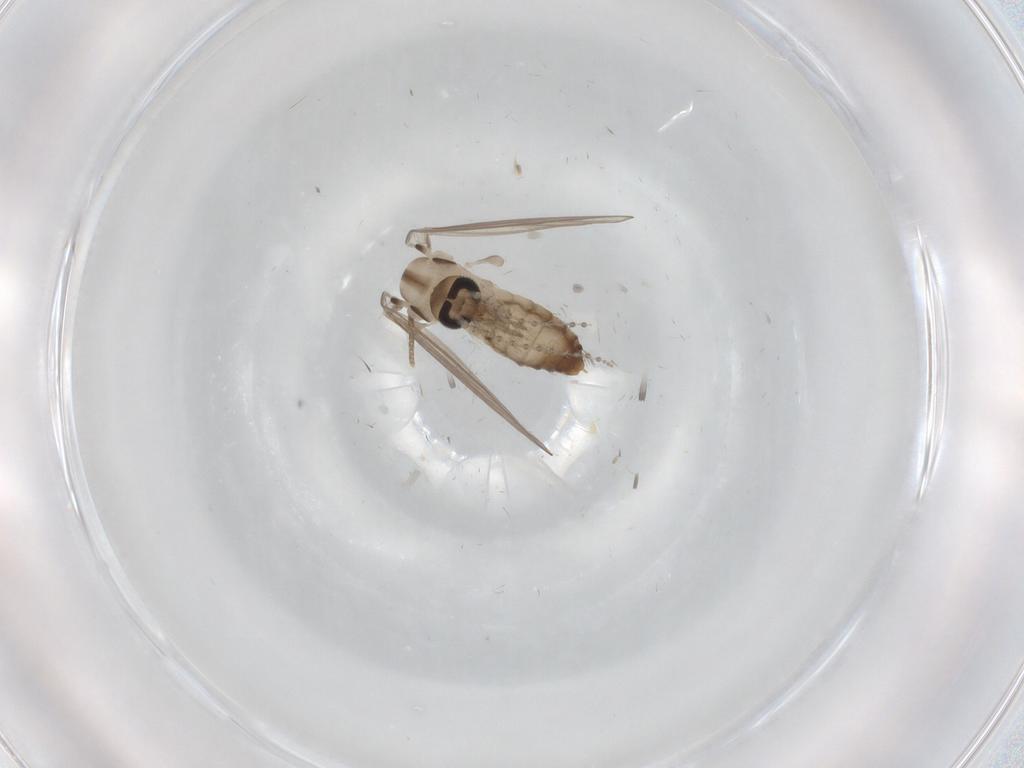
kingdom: Animalia
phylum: Arthropoda
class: Insecta
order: Diptera
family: Psychodidae
